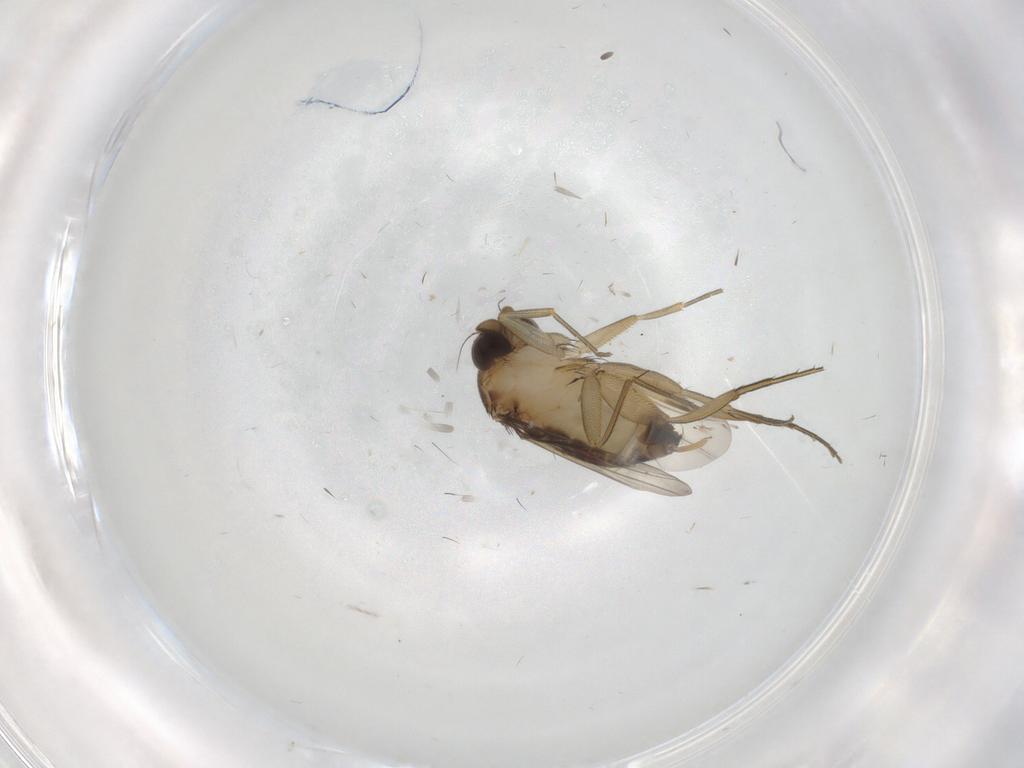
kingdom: Animalia
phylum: Arthropoda
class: Insecta
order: Diptera
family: Phoridae
